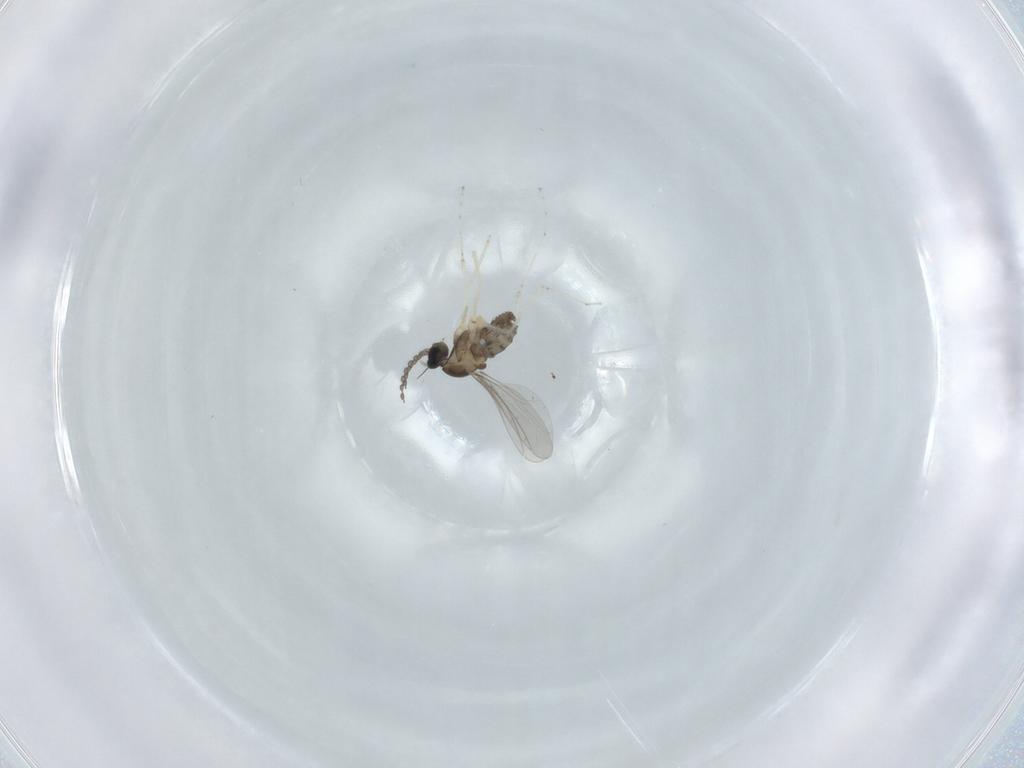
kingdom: Animalia
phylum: Arthropoda
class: Insecta
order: Diptera
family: Cecidomyiidae
